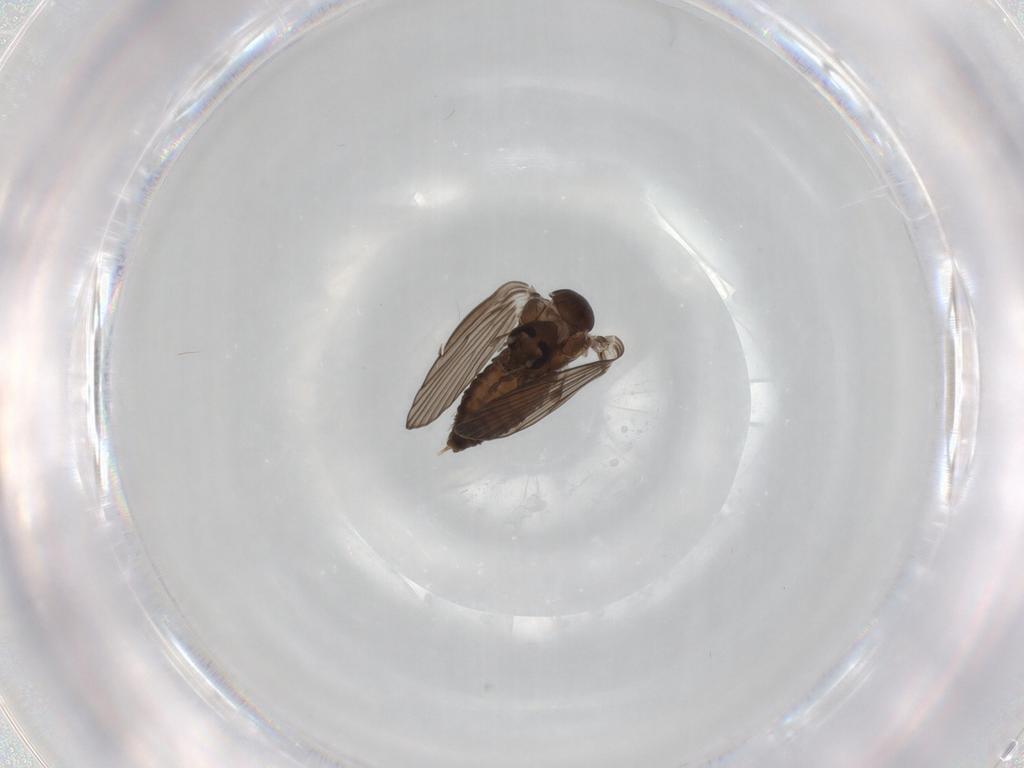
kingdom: Animalia
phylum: Arthropoda
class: Insecta
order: Diptera
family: Psychodidae
